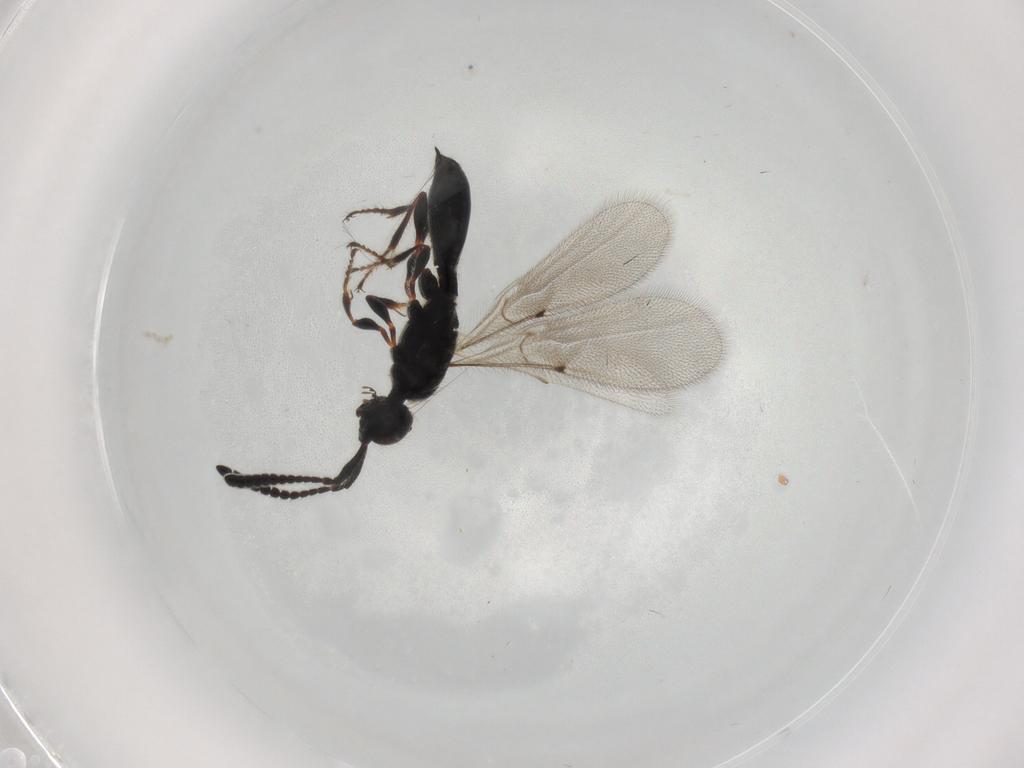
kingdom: Animalia
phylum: Arthropoda
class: Insecta
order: Hymenoptera
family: Diapriidae
